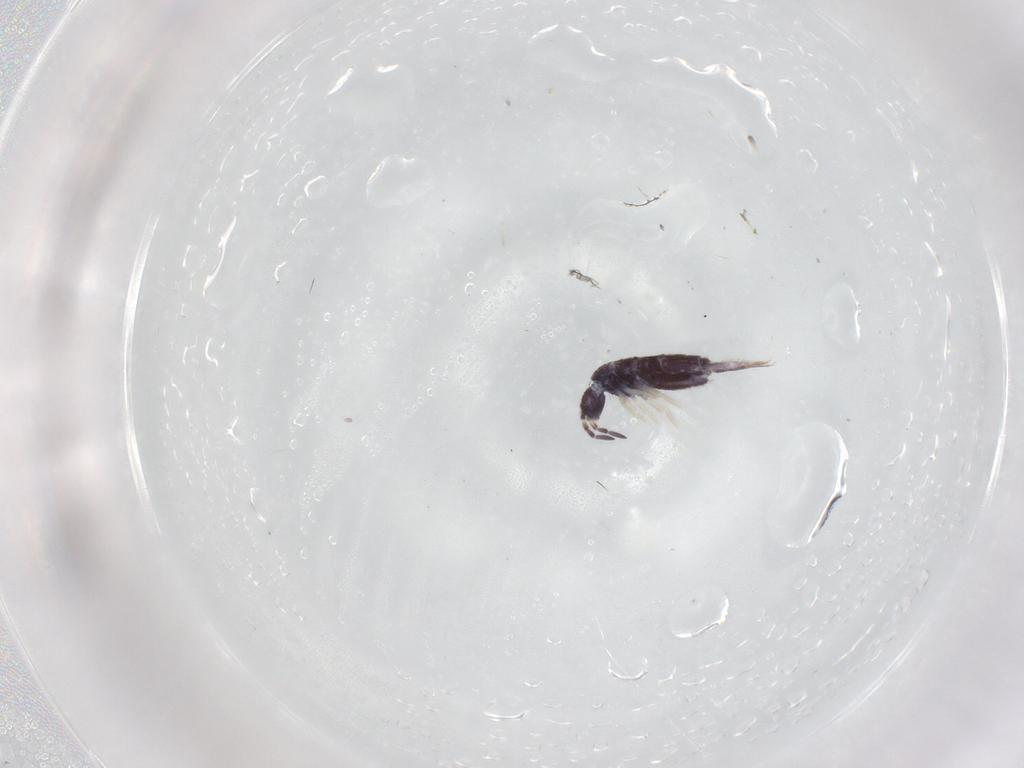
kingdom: Animalia
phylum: Arthropoda
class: Collembola
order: Entomobryomorpha
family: Entomobryidae
